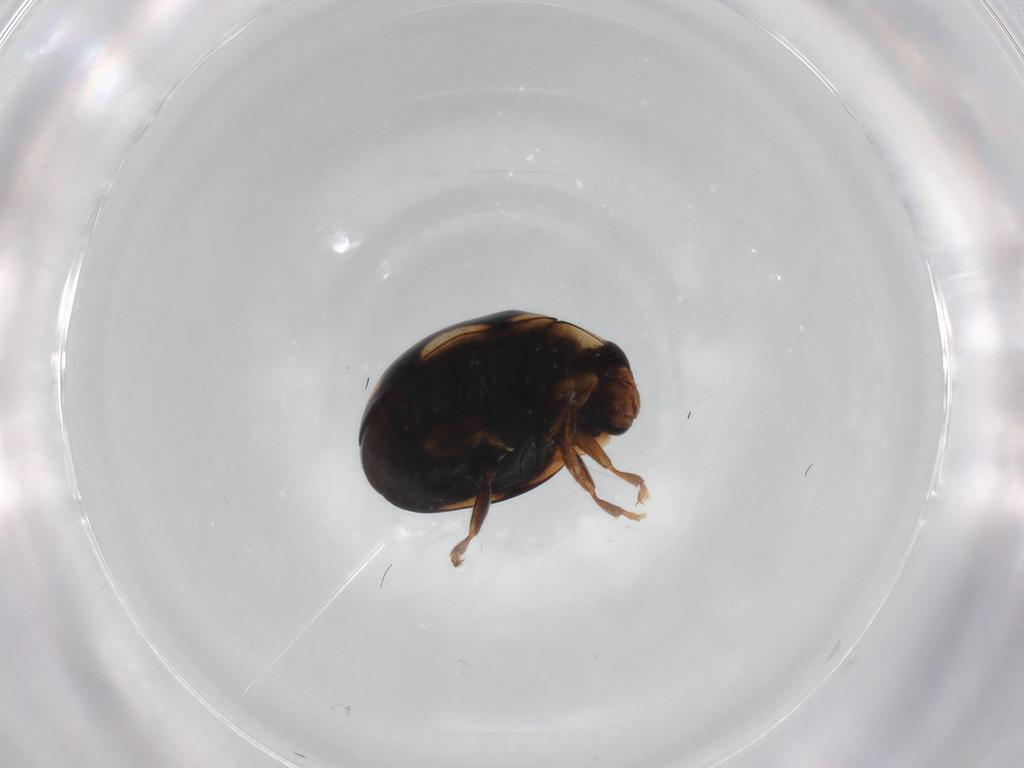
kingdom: Animalia
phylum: Arthropoda
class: Insecta
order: Coleoptera
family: Coccinellidae
